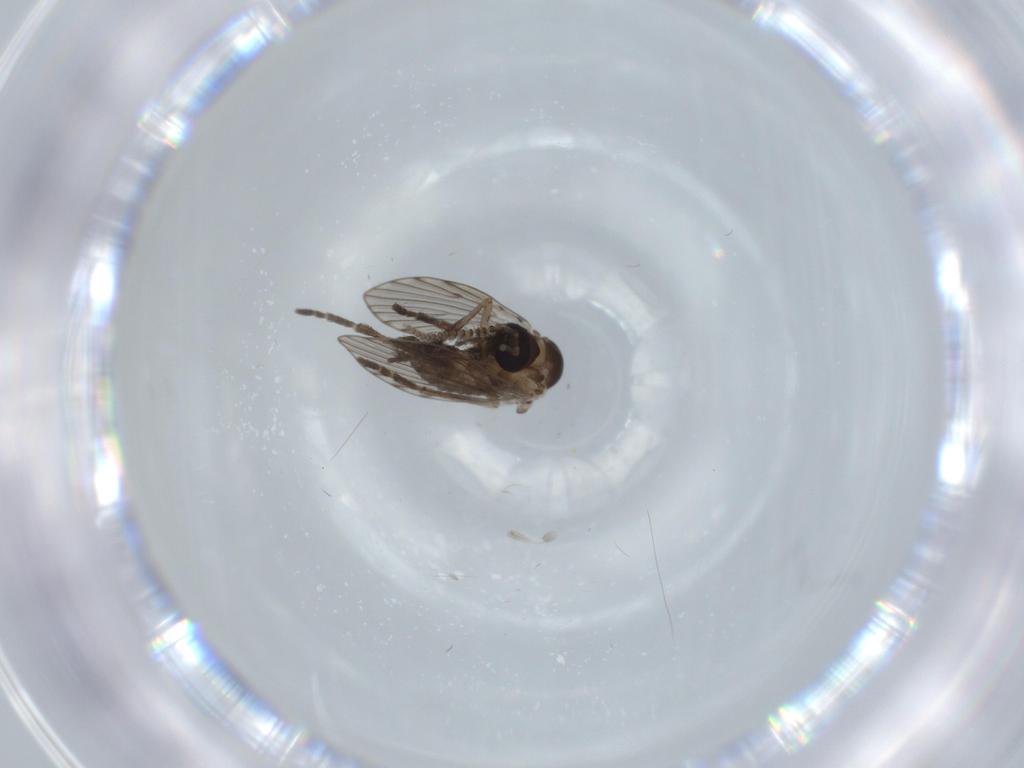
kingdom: Animalia
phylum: Arthropoda
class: Insecta
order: Diptera
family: Psychodidae
